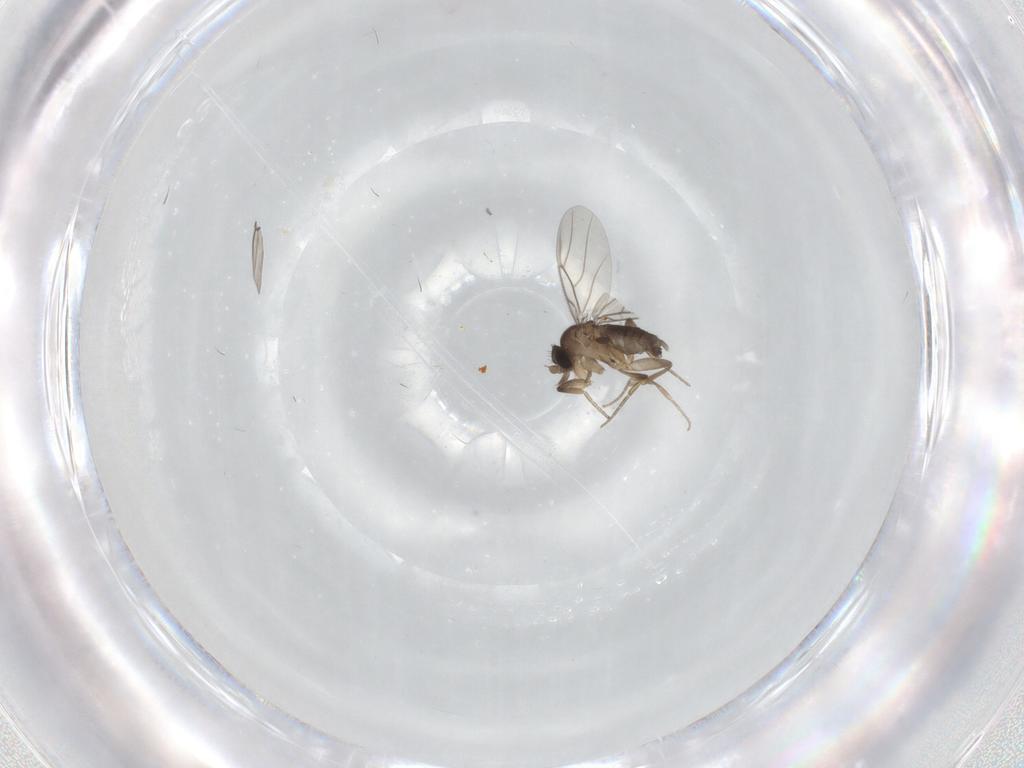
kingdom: Animalia
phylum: Arthropoda
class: Insecta
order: Diptera
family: Phoridae
